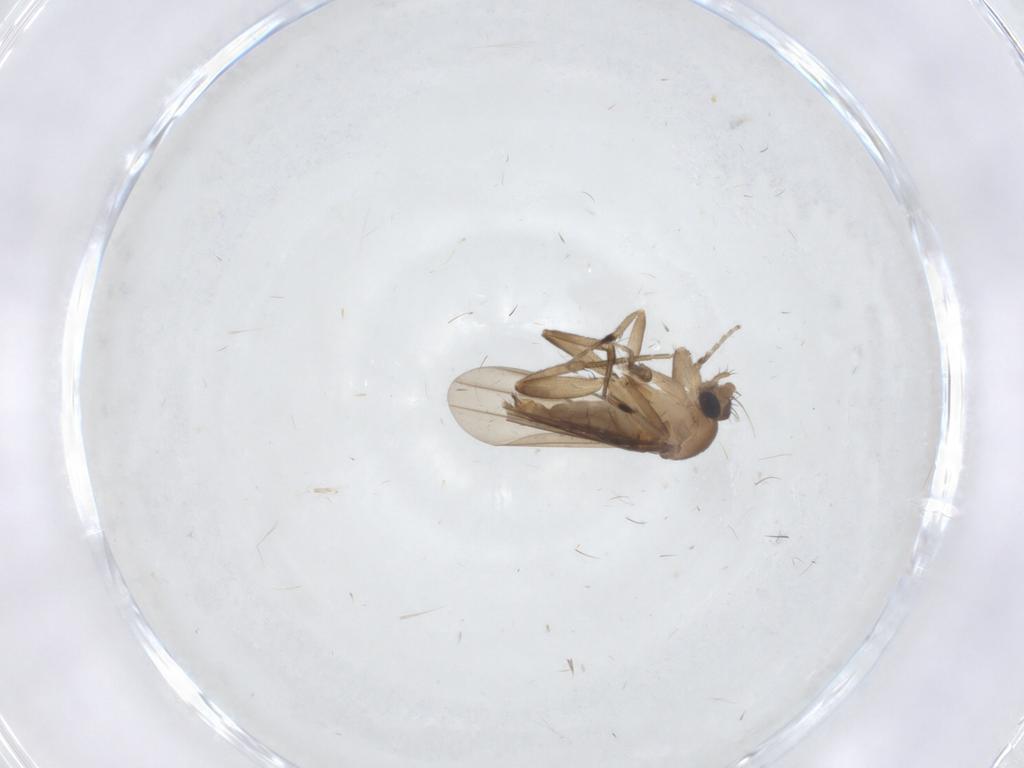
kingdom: Animalia
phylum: Arthropoda
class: Insecta
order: Diptera
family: Phoridae
